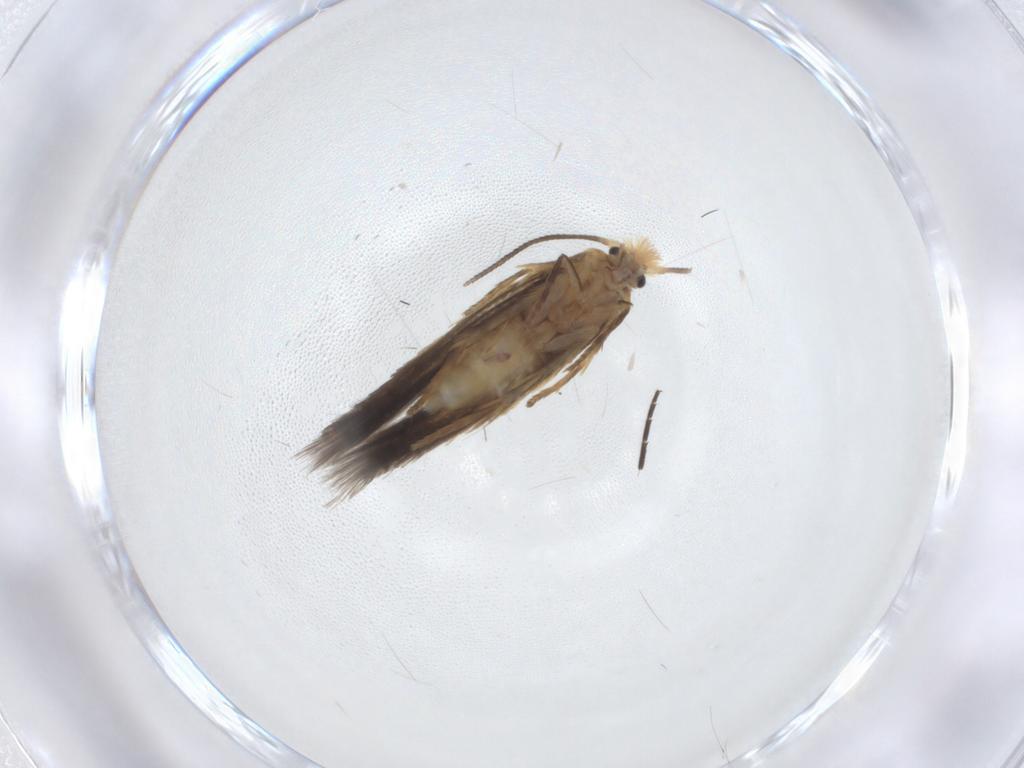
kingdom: Animalia
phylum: Arthropoda
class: Insecta
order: Lepidoptera
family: Nepticulidae
